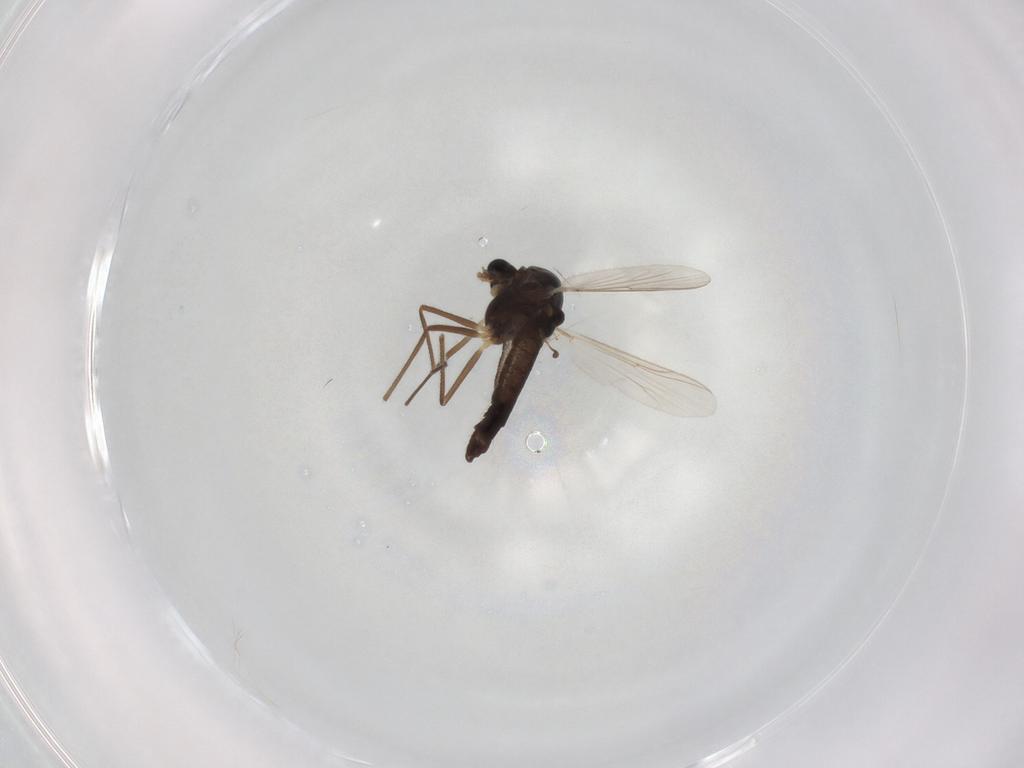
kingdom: Animalia
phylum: Arthropoda
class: Insecta
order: Diptera
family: Chironomidae
